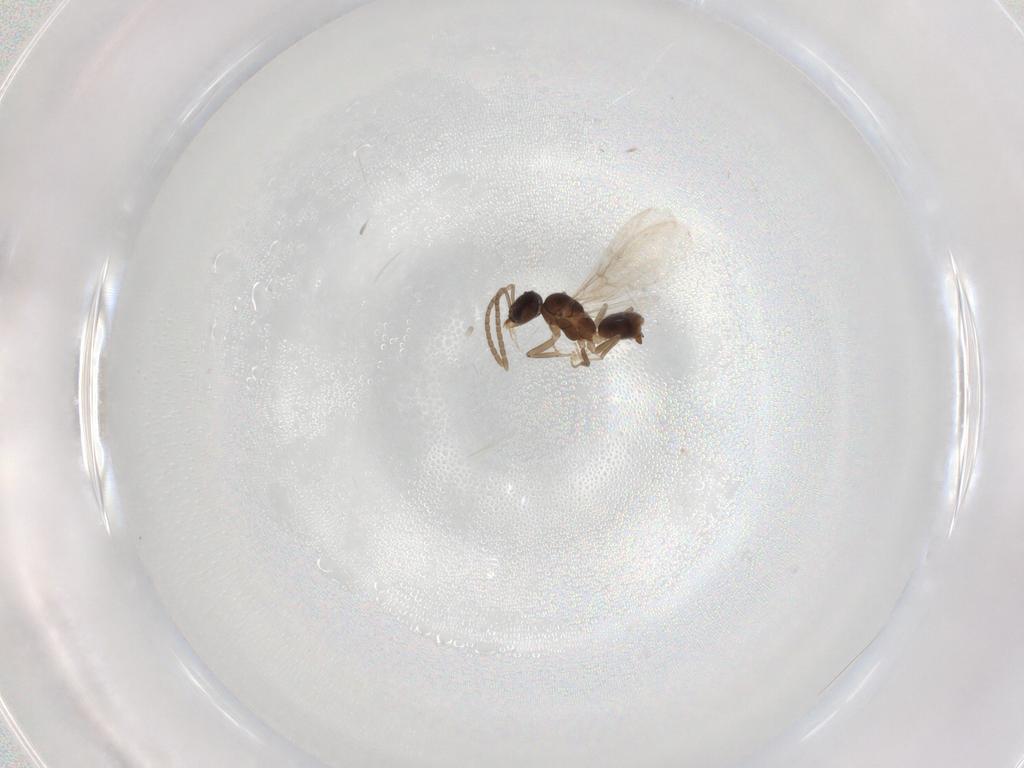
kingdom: Animalia
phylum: Arthropoda
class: Insecta
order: Hymenoptera
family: Formicidae
